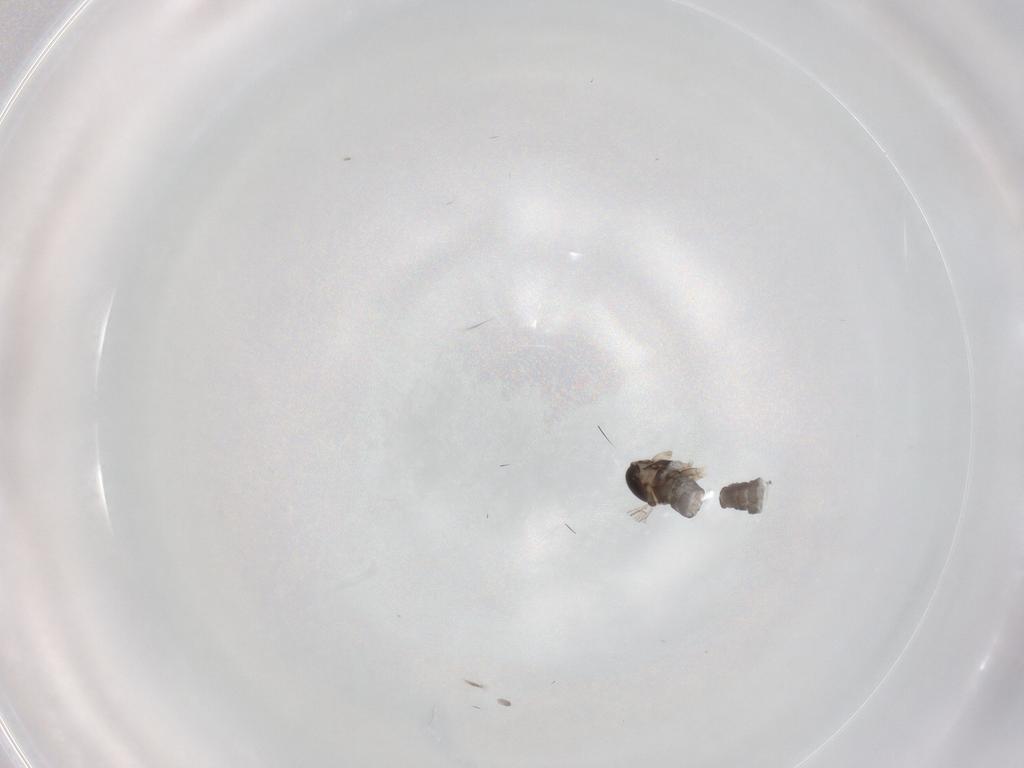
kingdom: Animalia
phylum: Arthropoda
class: Insecta
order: Diptera
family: Cecidomyiidae
